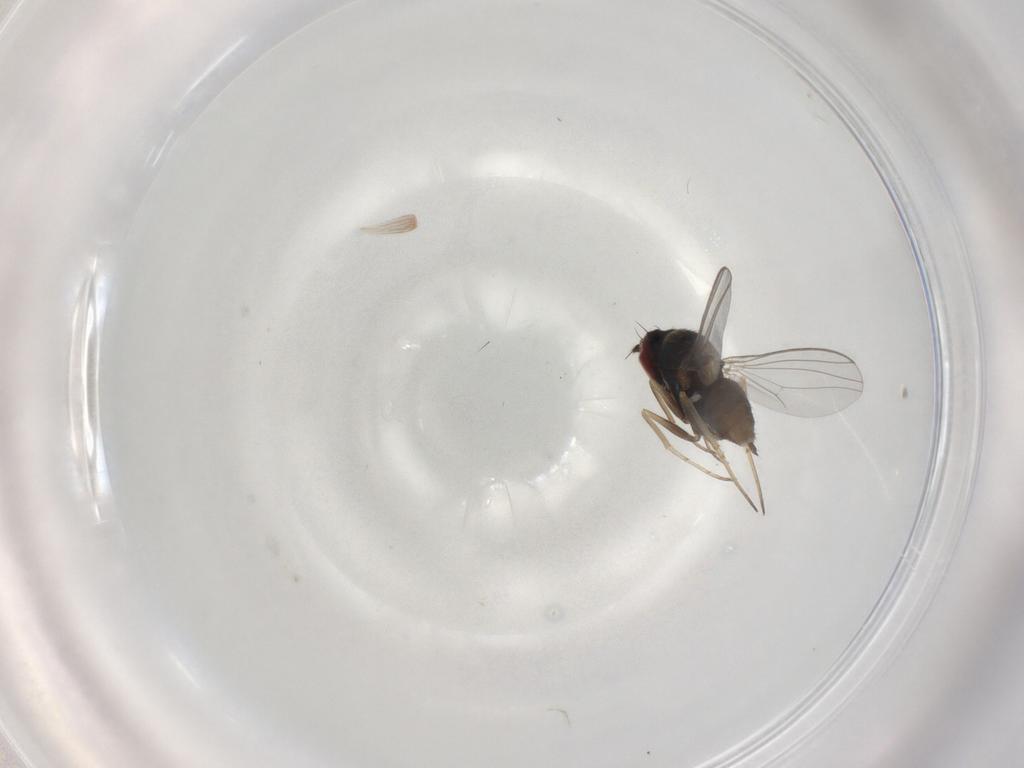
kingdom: Animalia
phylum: Arthropoda
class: Insecta
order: Diptera
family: Dolichopodidae
